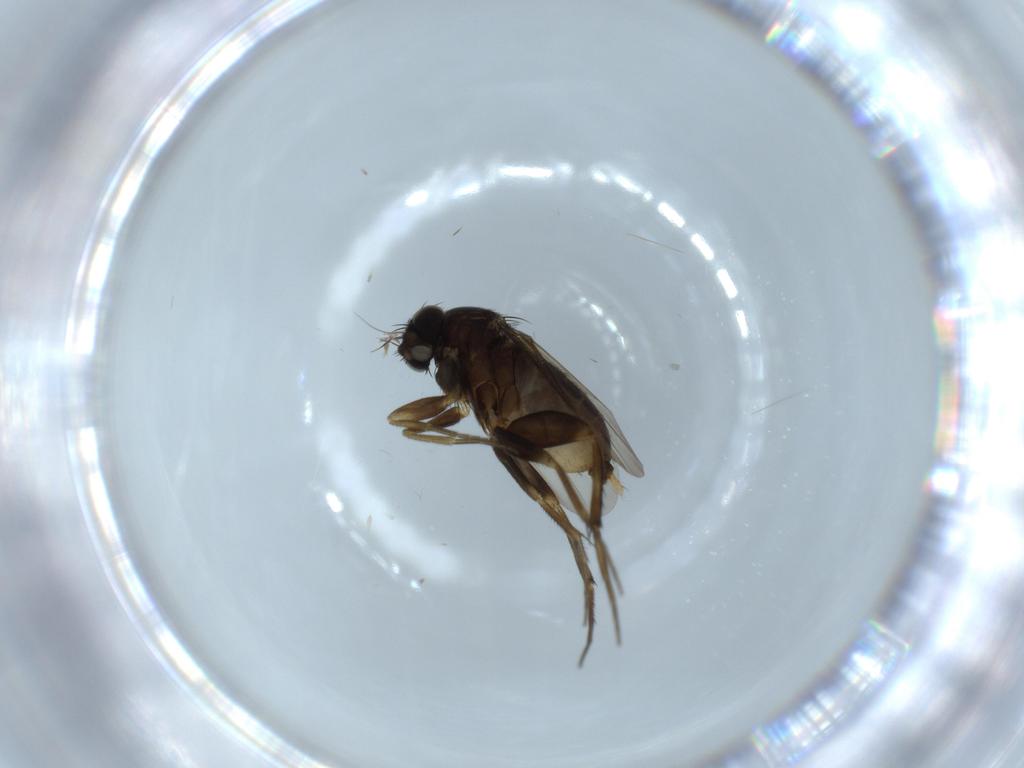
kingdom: Animalia
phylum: Arthropoda
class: Insecta
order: Diptera
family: Phoridae
